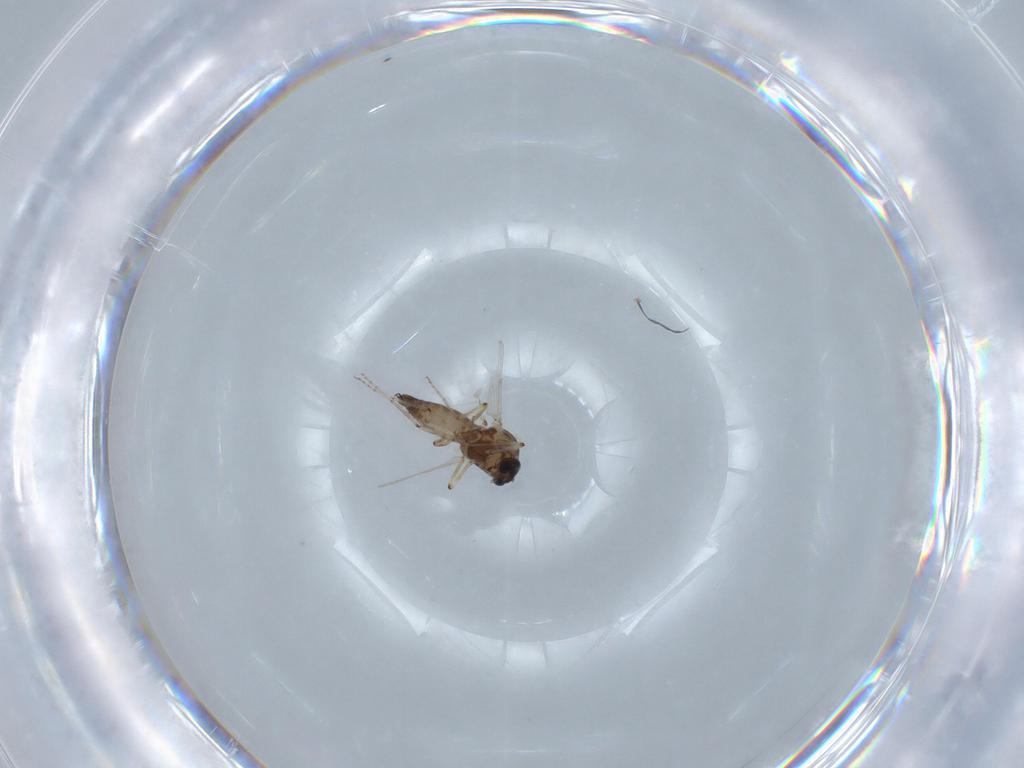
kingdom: Animalia
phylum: Arthropoda
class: Insecta
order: Diptera
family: Ceratopogonidae
